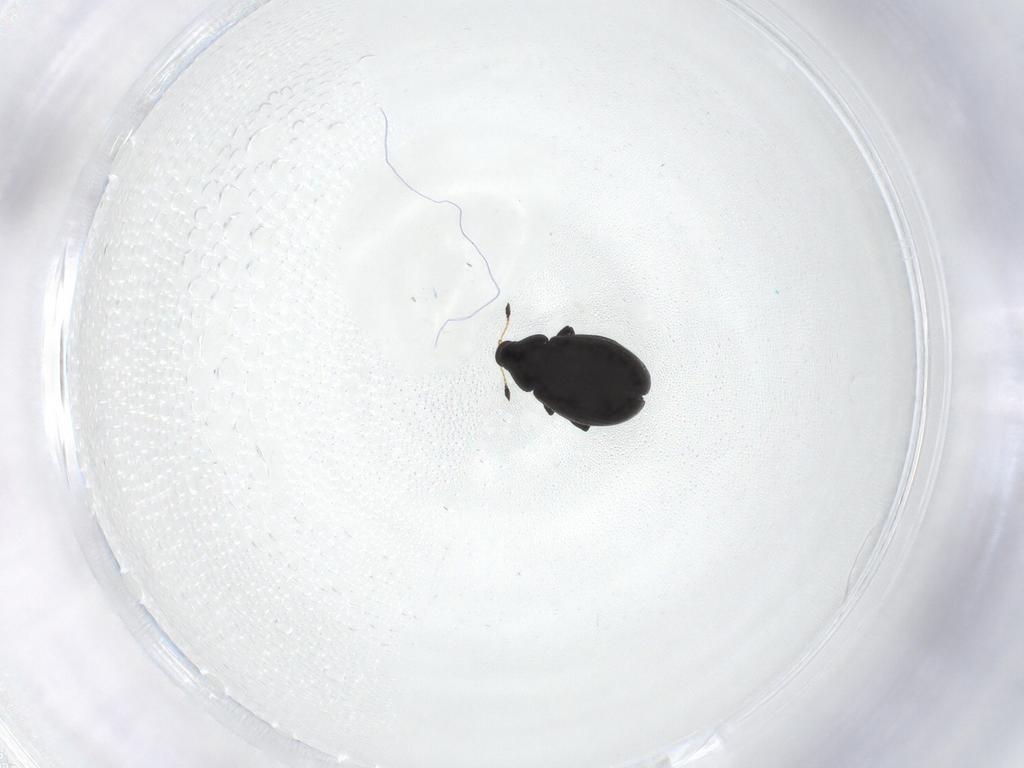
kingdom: Animalia
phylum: Arthropoda
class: Insecta
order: Coleoptera
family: Curculionidae
